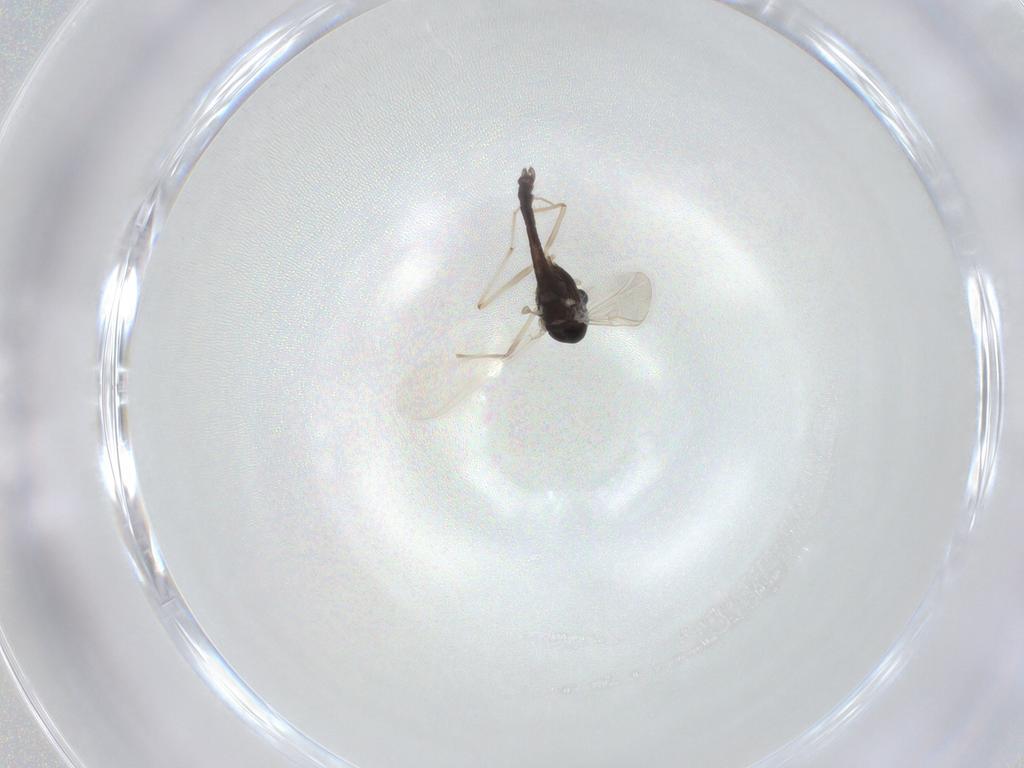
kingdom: Animalia
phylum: Arthropoda
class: Insecta
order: Diptera
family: Chironomidae
